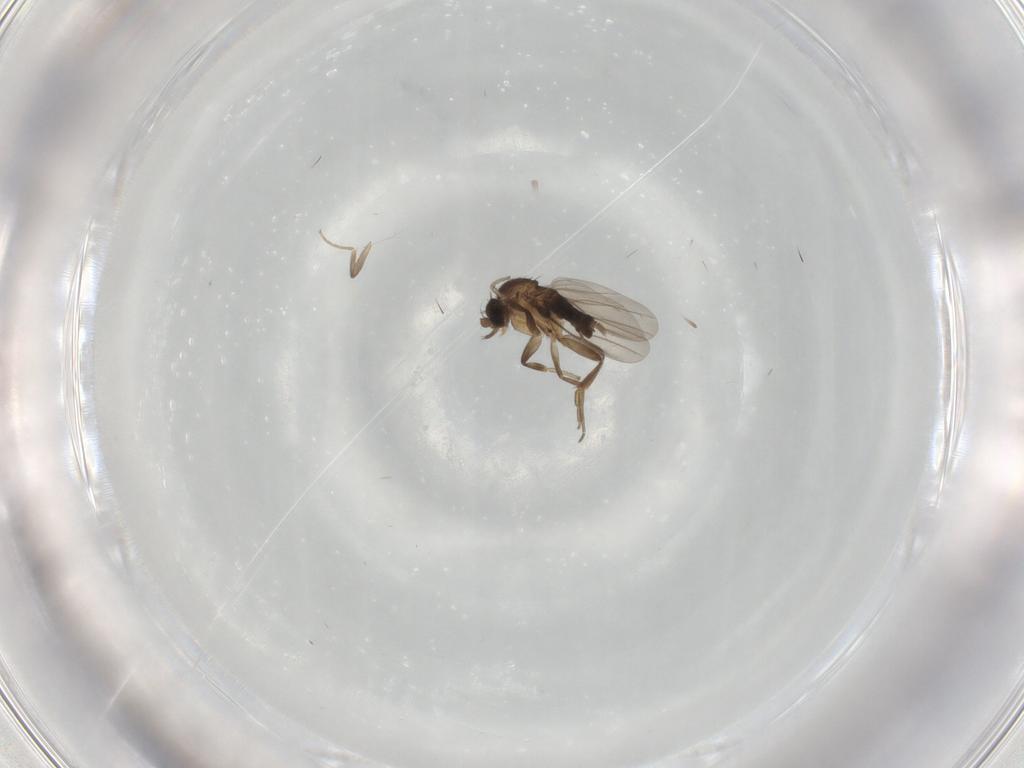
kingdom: Animalia
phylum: Arthropoda
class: Insecta
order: Diptera
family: Phoridae
